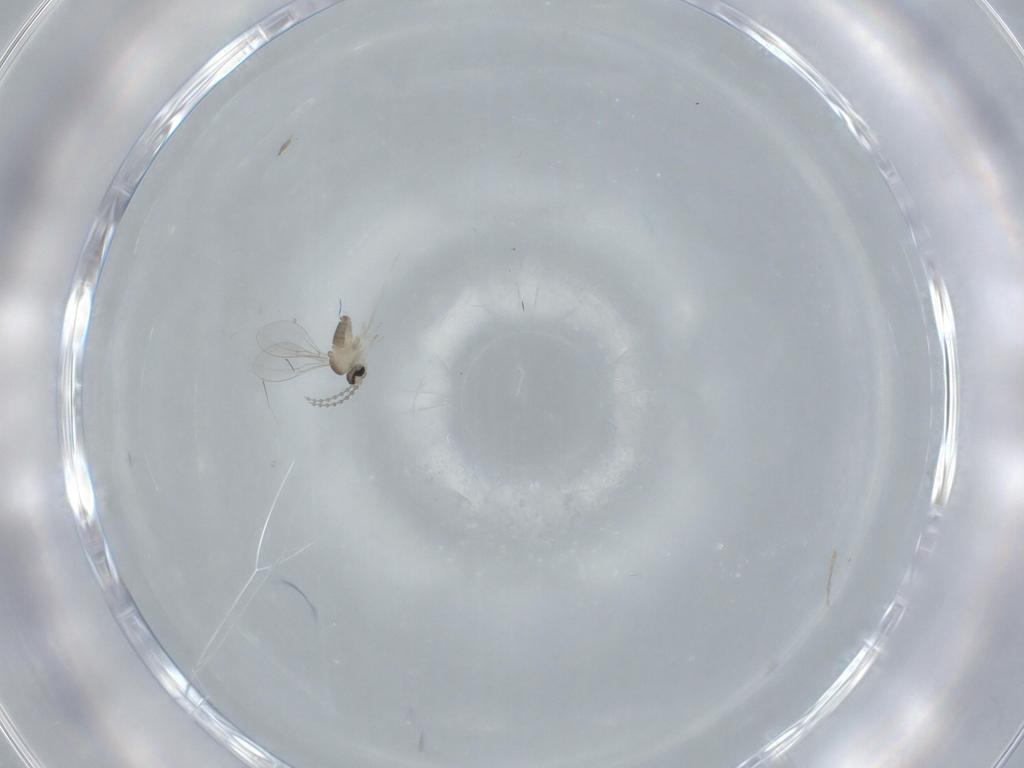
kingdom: Animalia
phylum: Arthropoda
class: Insecta
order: Diptera
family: Cecidomyiidae
